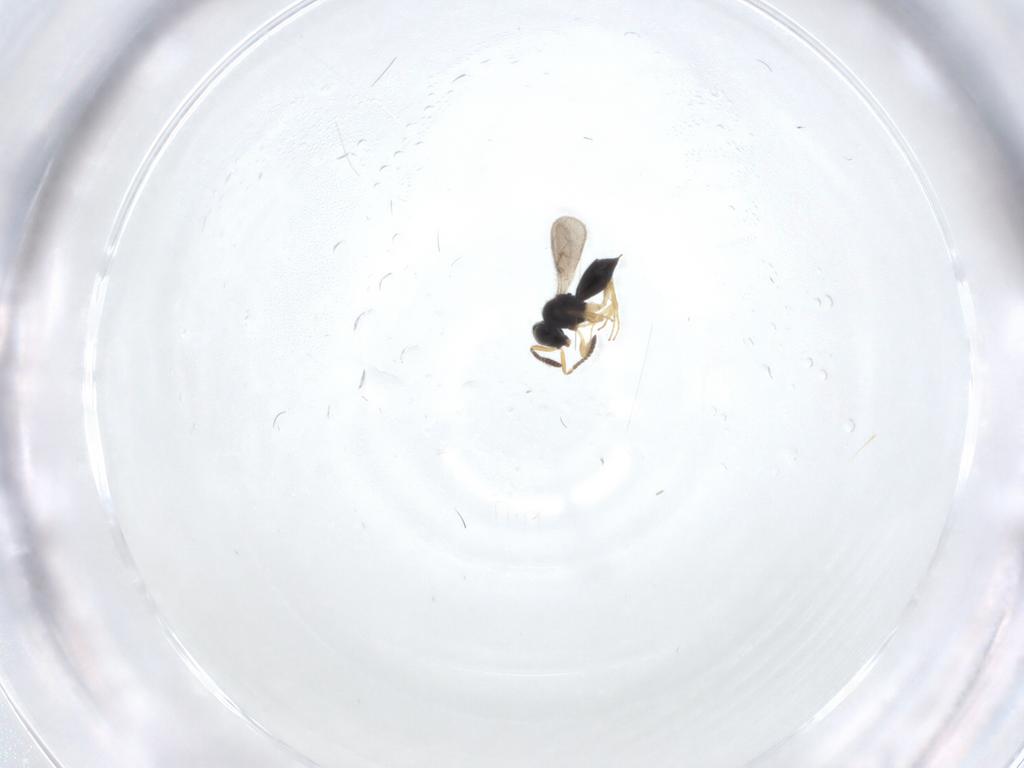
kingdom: Animalia
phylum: Arthropoda
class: Insecta
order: Hymenoptera
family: Scelionidae
